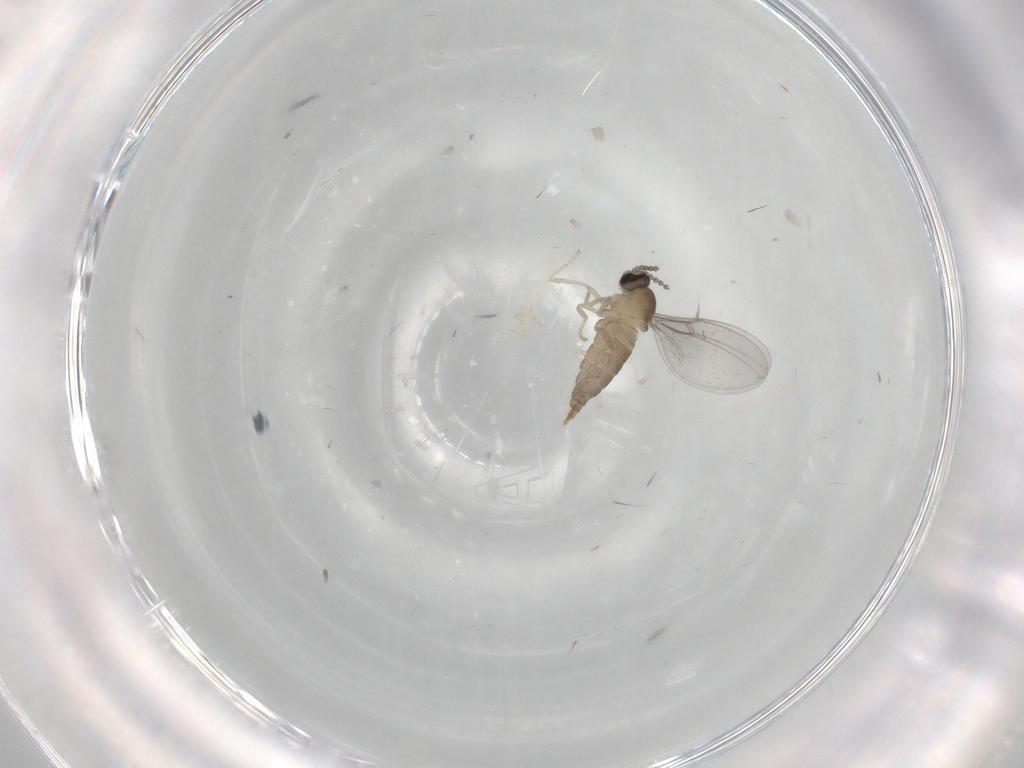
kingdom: Animalia
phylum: Arthropoda
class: Insecta
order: Diptera
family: Cecidomyiidae
